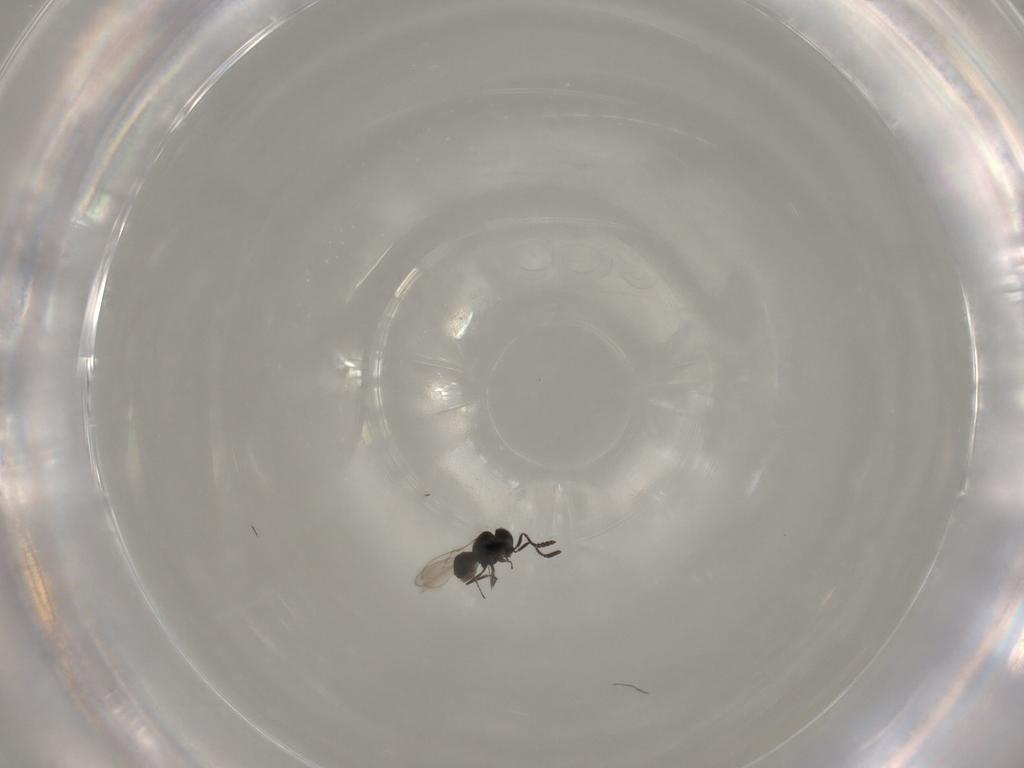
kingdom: Animalia
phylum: Arthropoda
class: Insecta
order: Hymenoptera
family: Scelionidae
